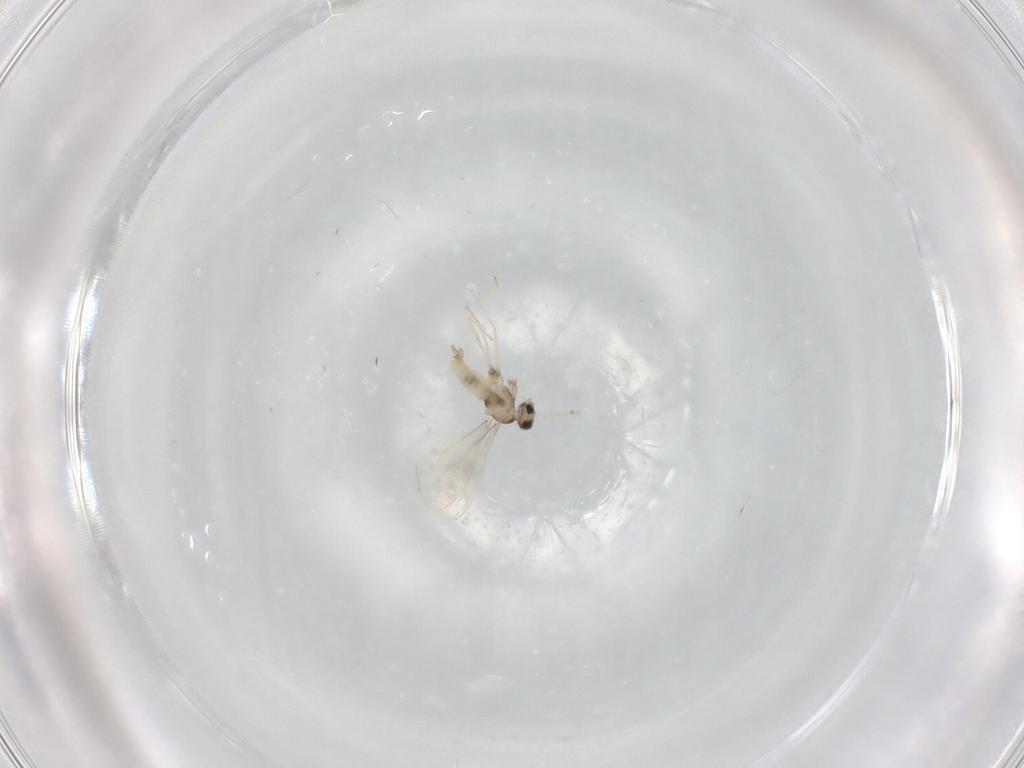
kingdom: Animalia
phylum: Arthropoda
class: Insecta
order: Diptera
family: Cecidomyiidae
